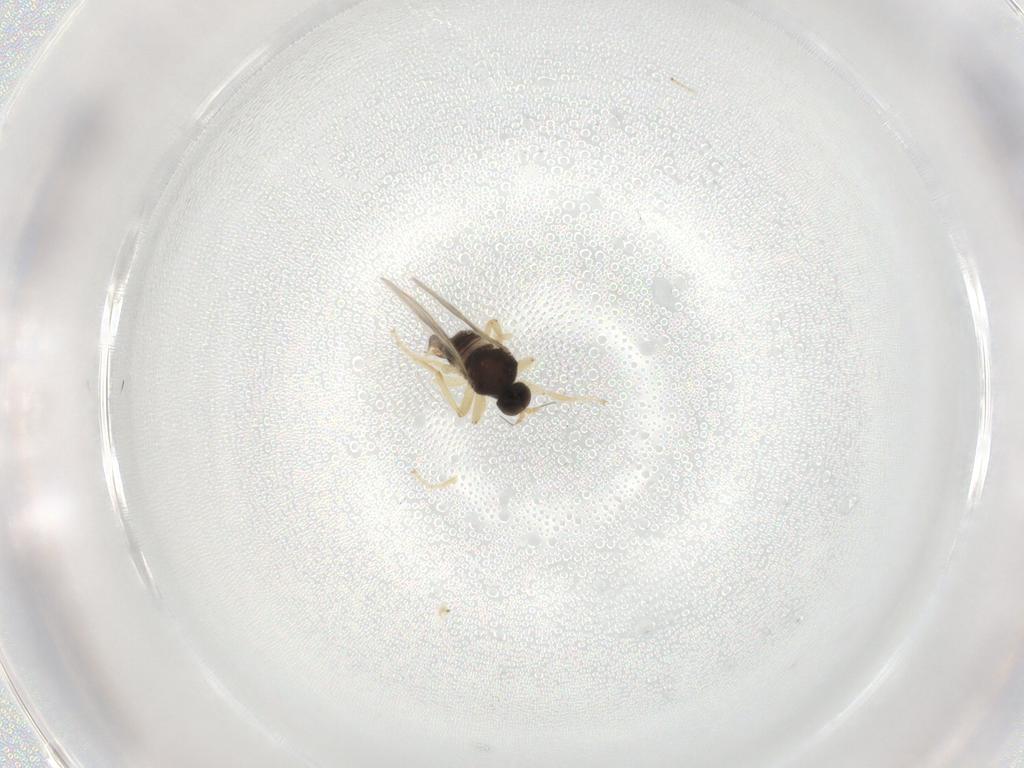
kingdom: Animalia
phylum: Arthropoda
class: Insecta
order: Diptera
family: Hybotidae
